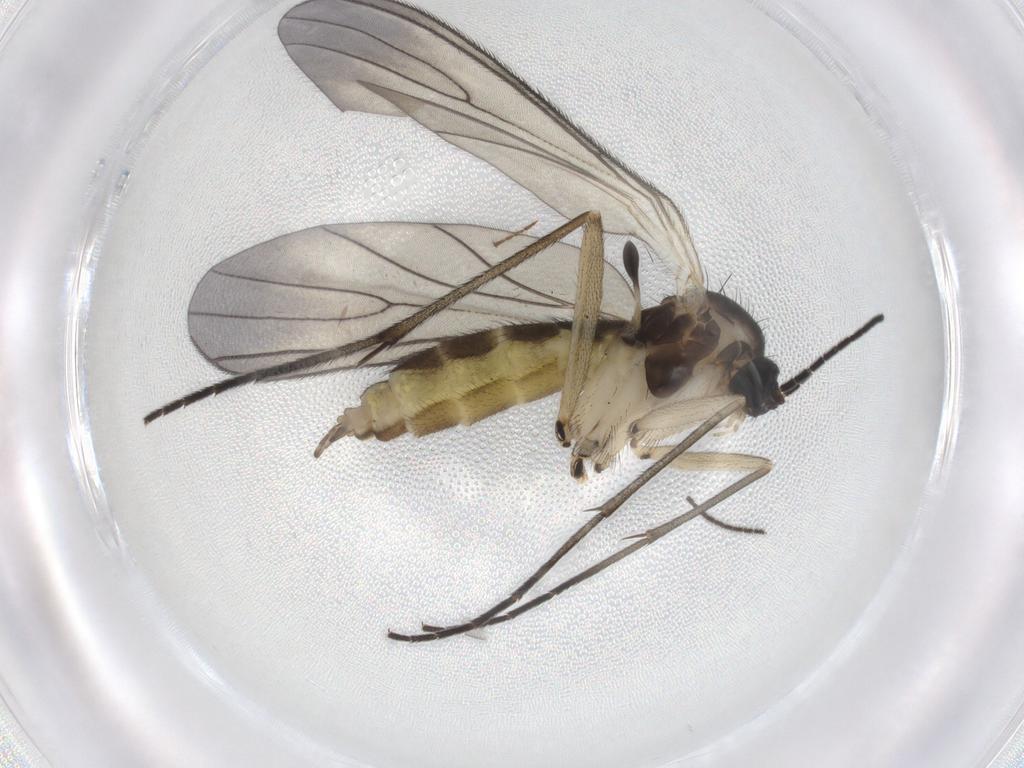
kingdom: Animalia
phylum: Arthropoda
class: Insecta
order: Diptera
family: Sciaridae
